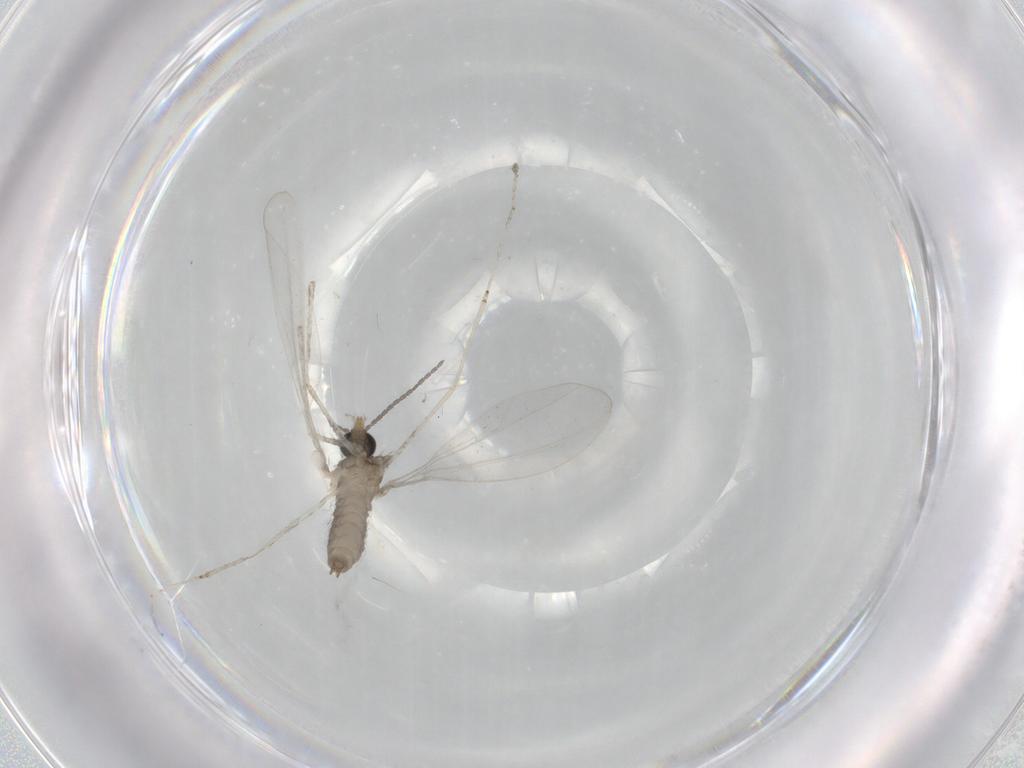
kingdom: Animalia
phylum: Arthropoda
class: Insecta
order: Diptera
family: Cecidomyiidae
